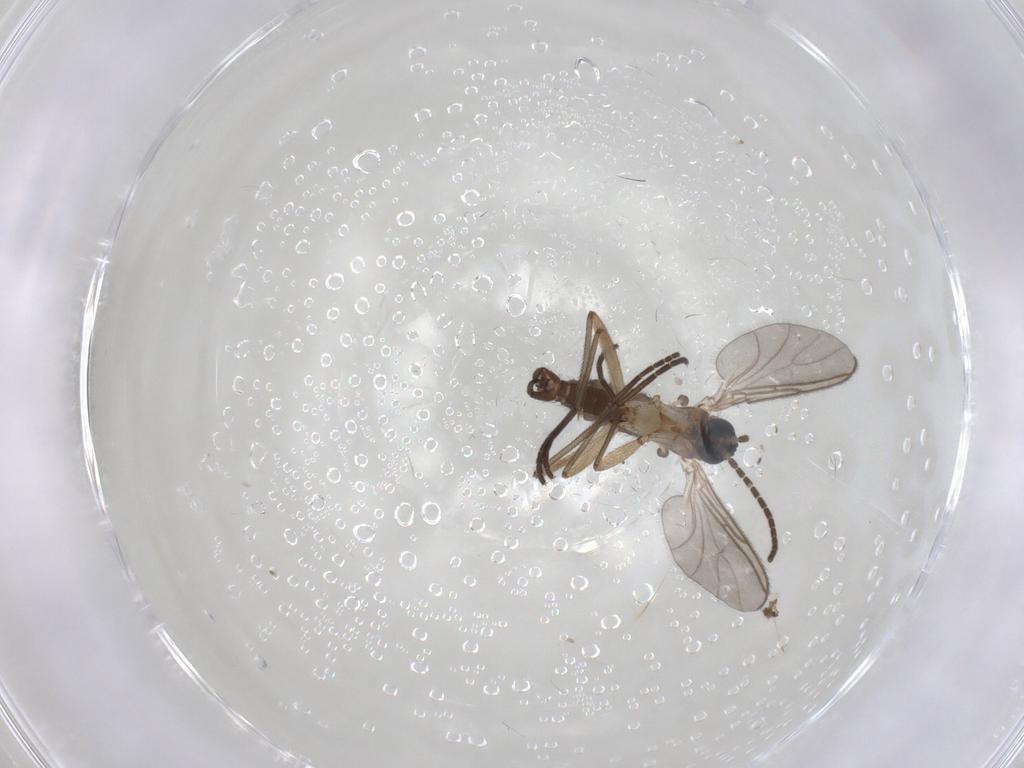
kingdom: Animalia
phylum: Arthropoda
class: Insecta
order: Diptera
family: Sciaridae
